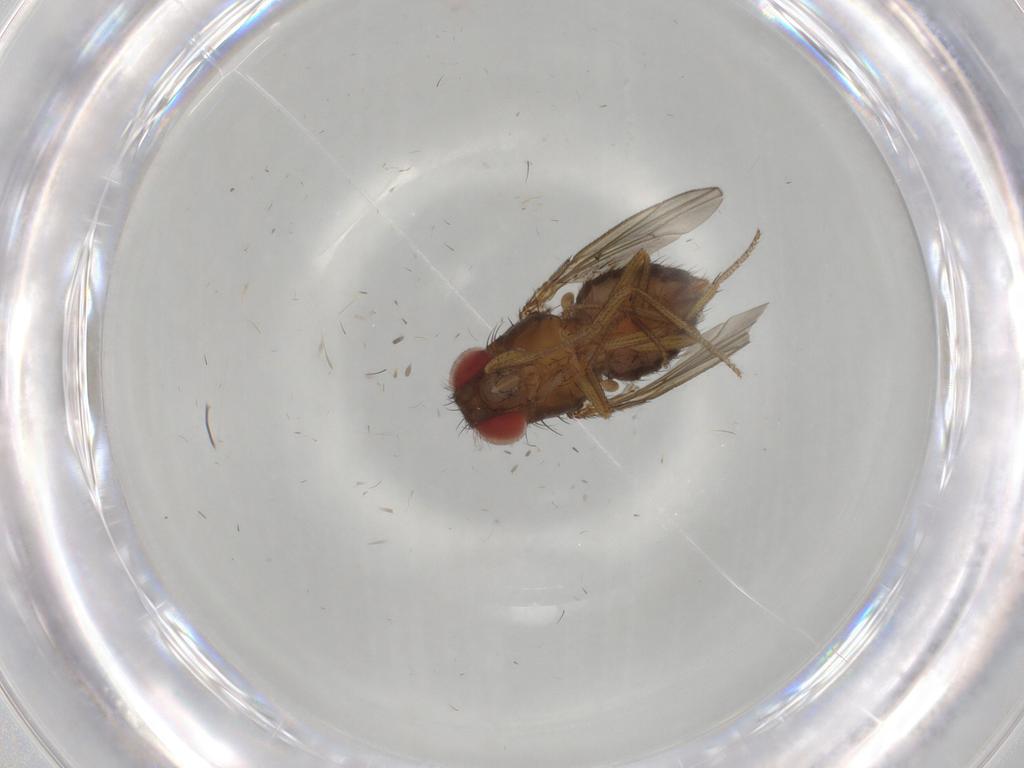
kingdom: Animalia
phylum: Arthropoda
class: Insecta
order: Diptera
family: Drosophilidae
